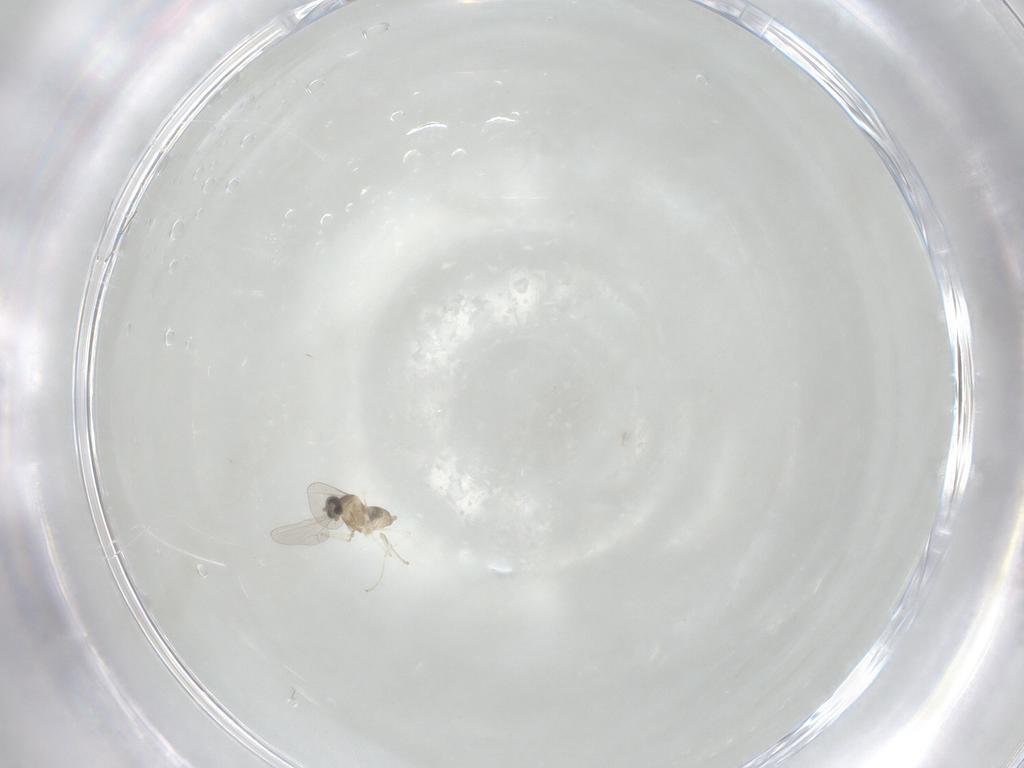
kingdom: Animalia
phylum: Arthropoda
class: Insecta
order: Diptera
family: Cecidomyiidae
